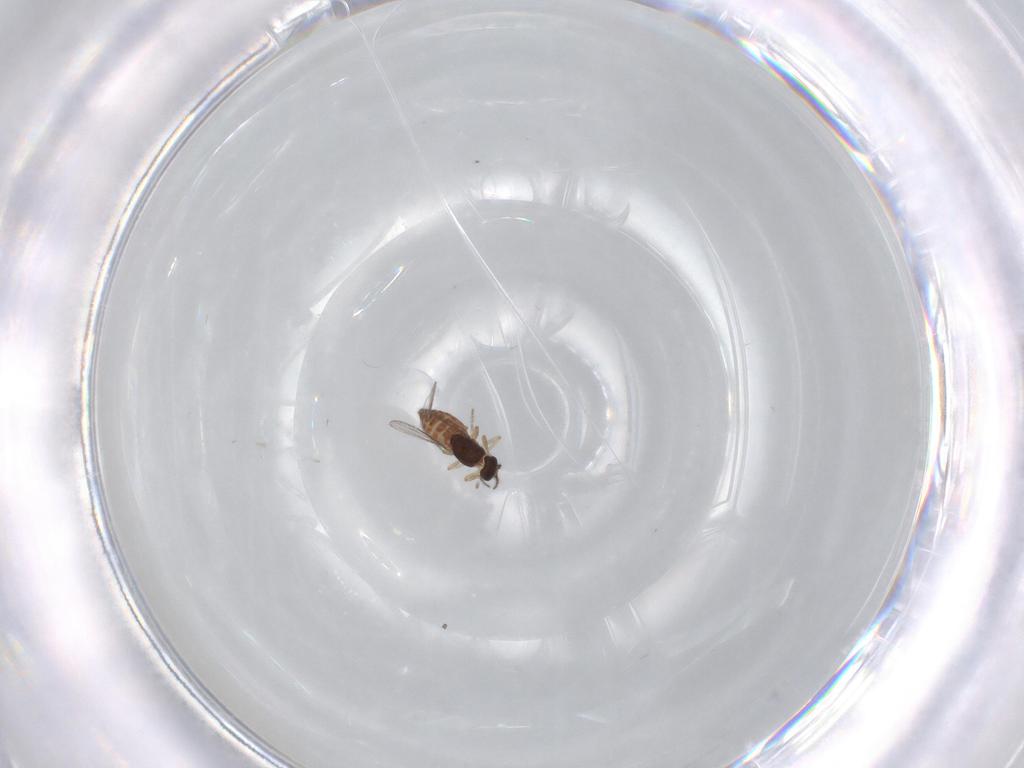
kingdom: Animalia
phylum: Arthropoda
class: Insecta
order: Diptera
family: Ceratopogonidae
